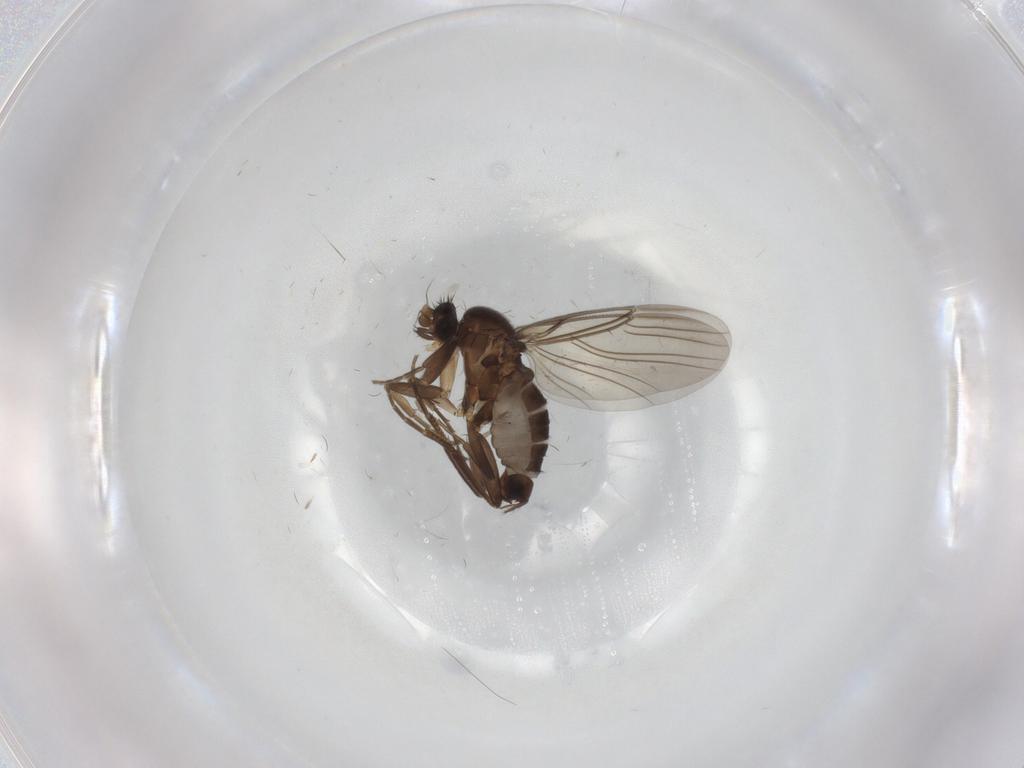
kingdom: Animalia
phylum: Arthropoda
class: Insecta
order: Diptera
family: Phoridae
